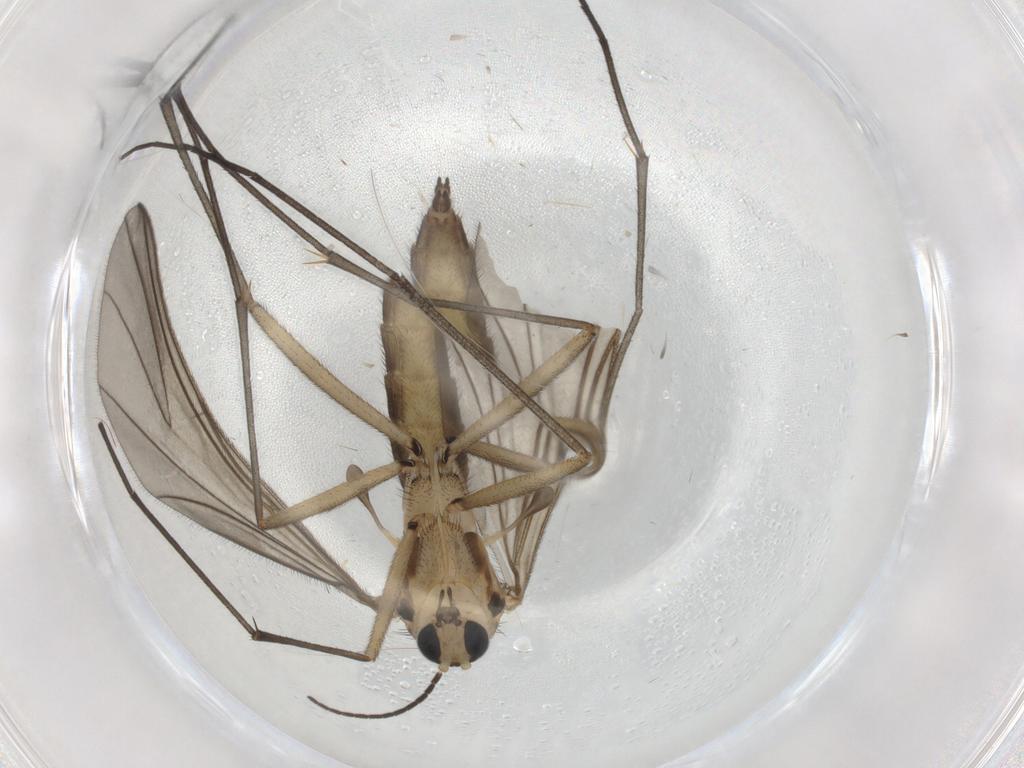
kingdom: Animalia
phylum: Arthropoda
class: Insecta
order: Diptera
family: Sciaridae
